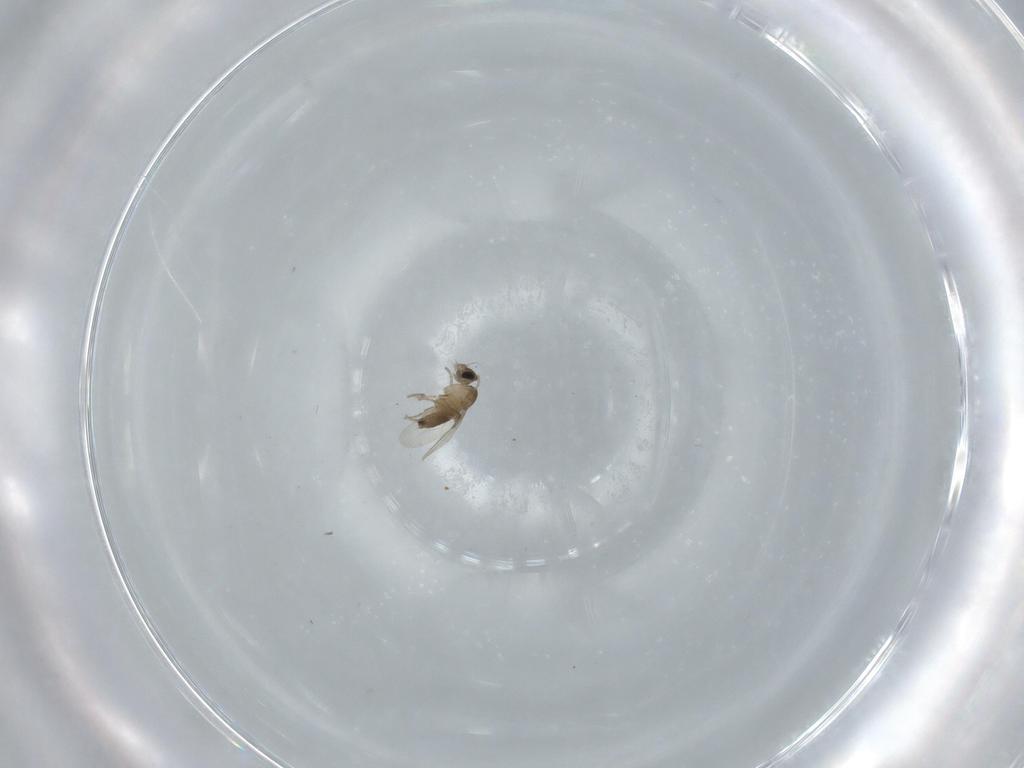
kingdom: Animalia
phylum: Arthropoda
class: Insecta
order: Diptera
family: Phoridae
